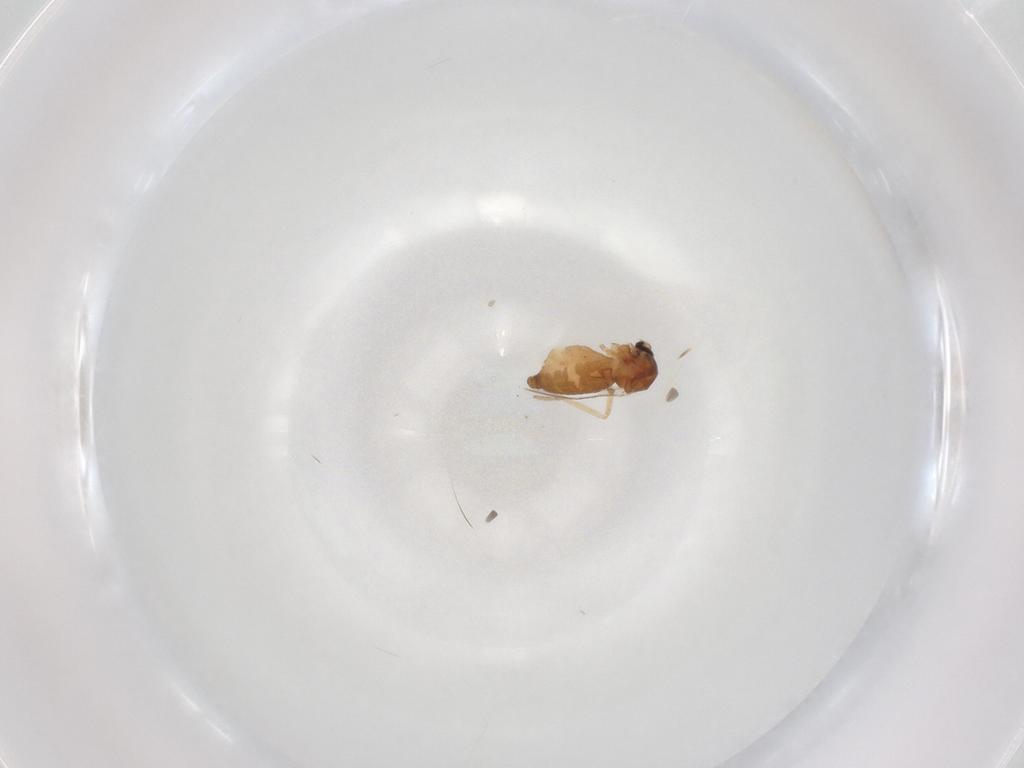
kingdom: Animalia
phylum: Arthropoda
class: Insecta
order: Diptera
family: Ceratopogonidae
